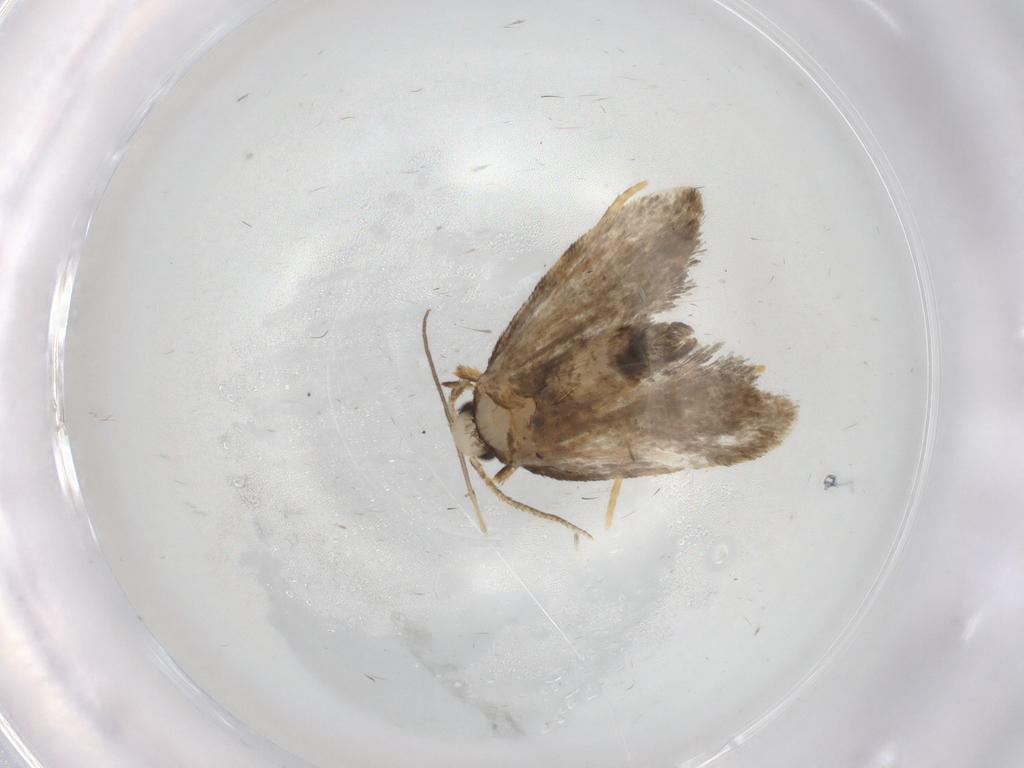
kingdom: Animalia
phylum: Arthropoda
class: Insecta
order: Lepidoptera
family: Psychidae
